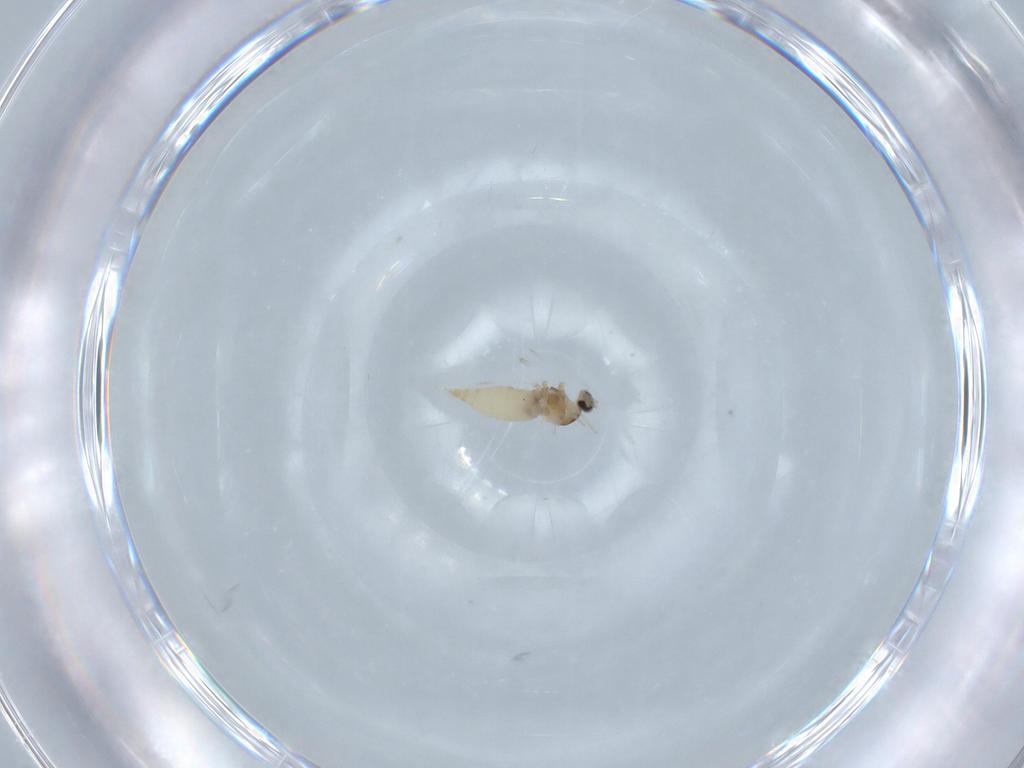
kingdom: Animalia
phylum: Arthropoda
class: Insecta
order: Diptera
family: Cecidomyiidae
